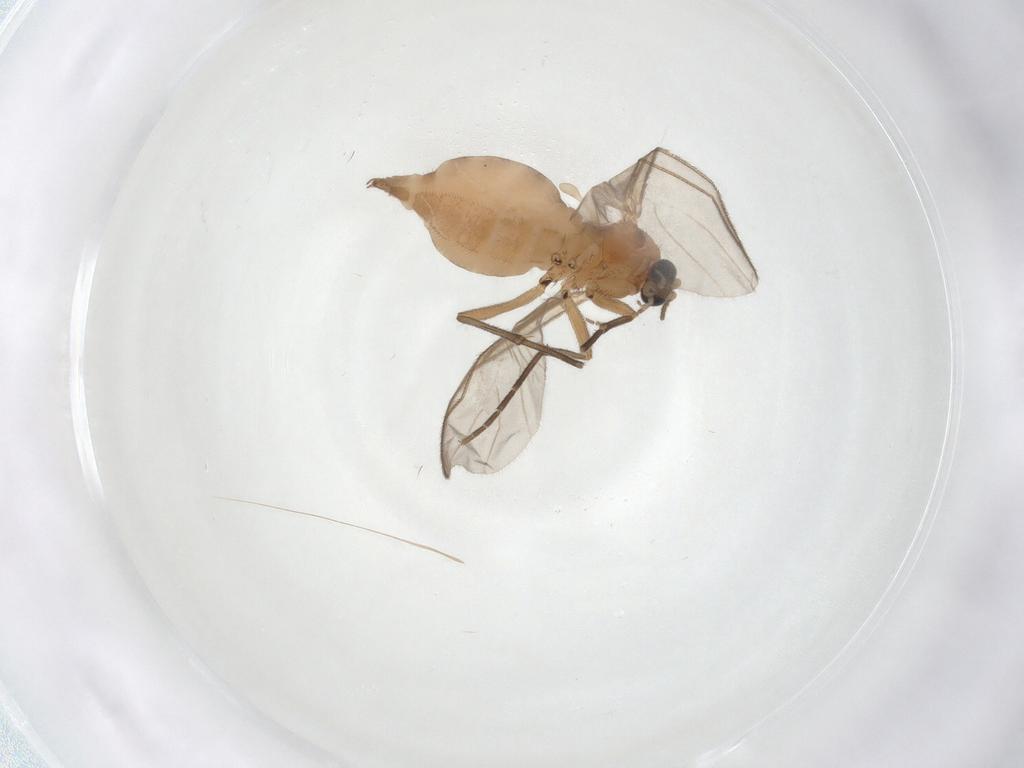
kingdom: Animalia
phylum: Arthropoda
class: Insecta
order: Diptera
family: Sciaridae
